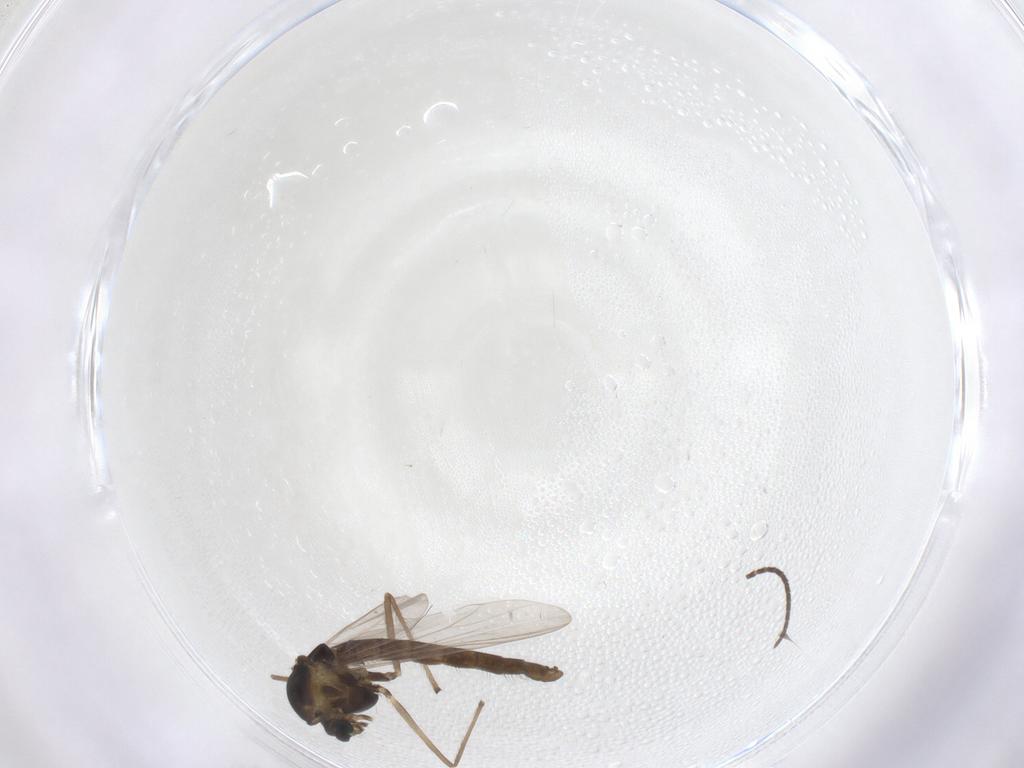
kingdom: Animalia
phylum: Arthropoda
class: Insecta
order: Diptera
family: Chironomidae
